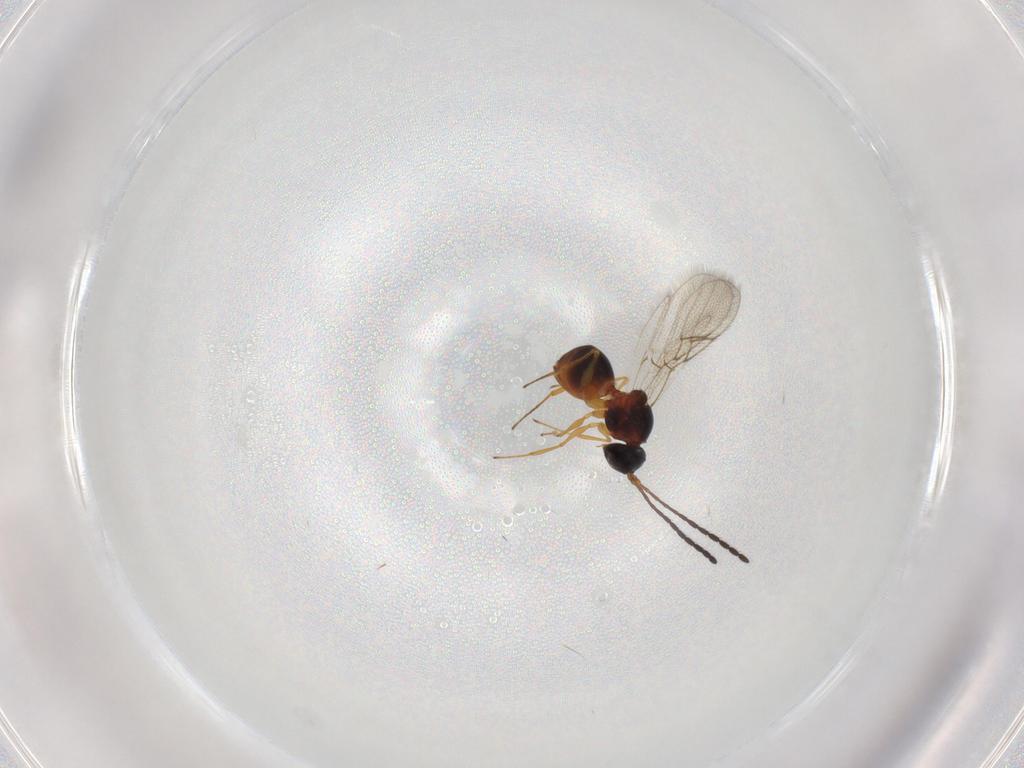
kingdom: Animalia
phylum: Arthropoda
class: Insecta
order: Hymenoptera
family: Figitidae
